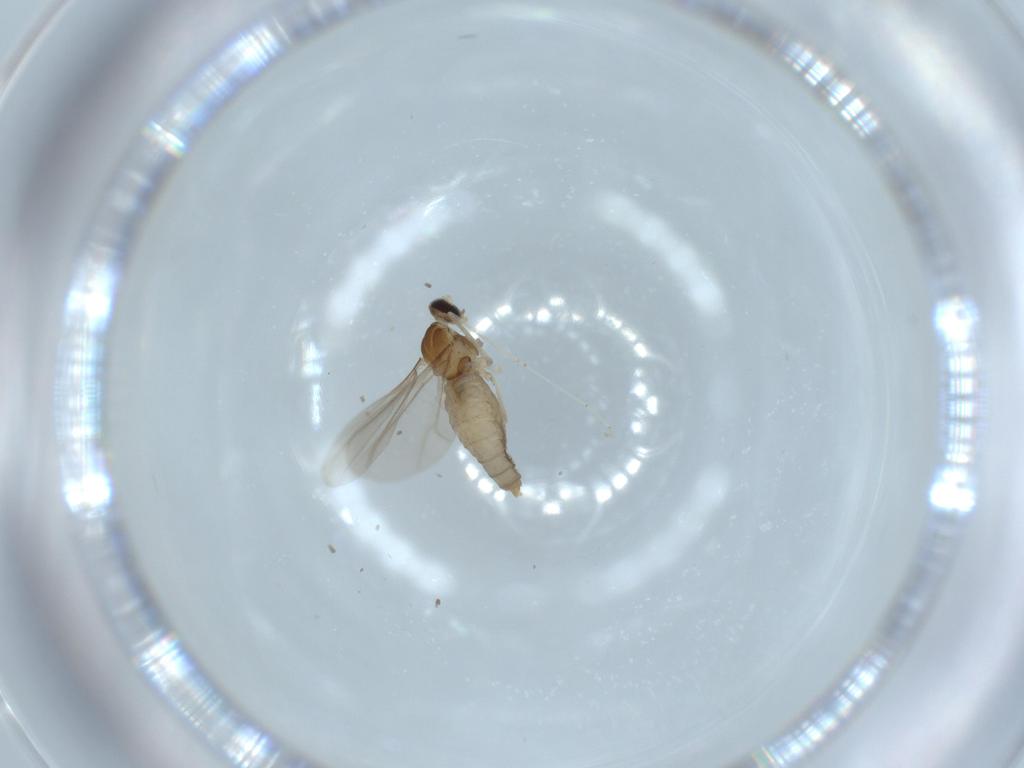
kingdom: Animalia
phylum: Arthropoda
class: Insecta
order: Diptera
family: Cecidomyiidae
